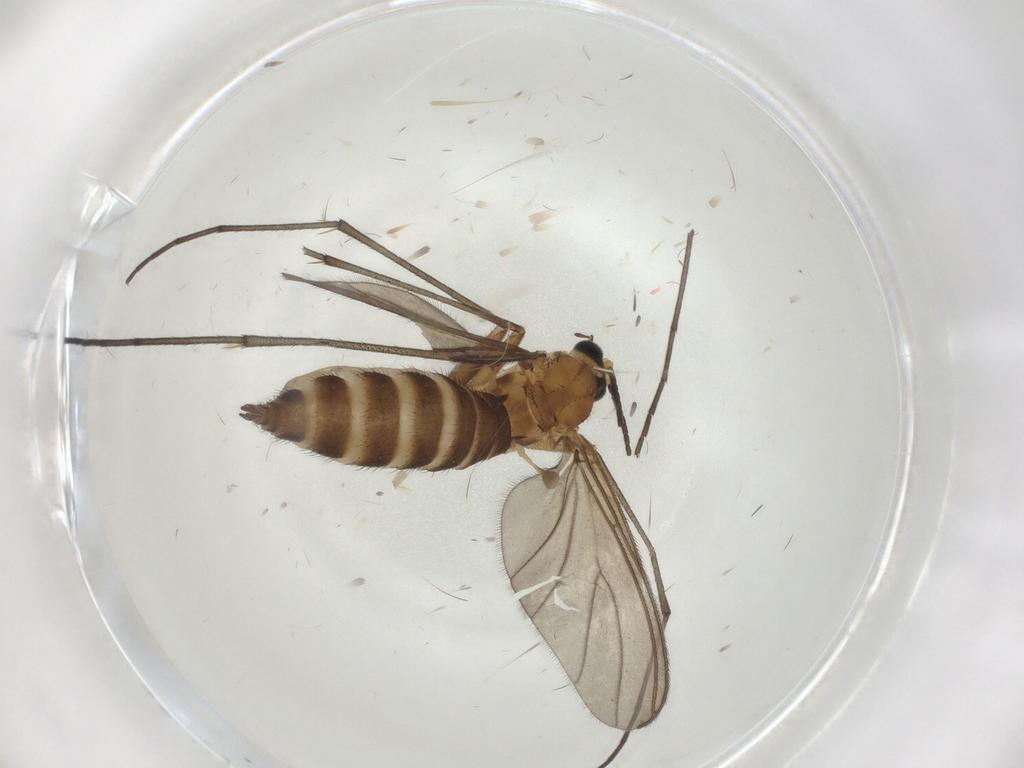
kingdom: Animalia
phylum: Arthropoda
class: Insecta
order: Diptera
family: Sciaridae
